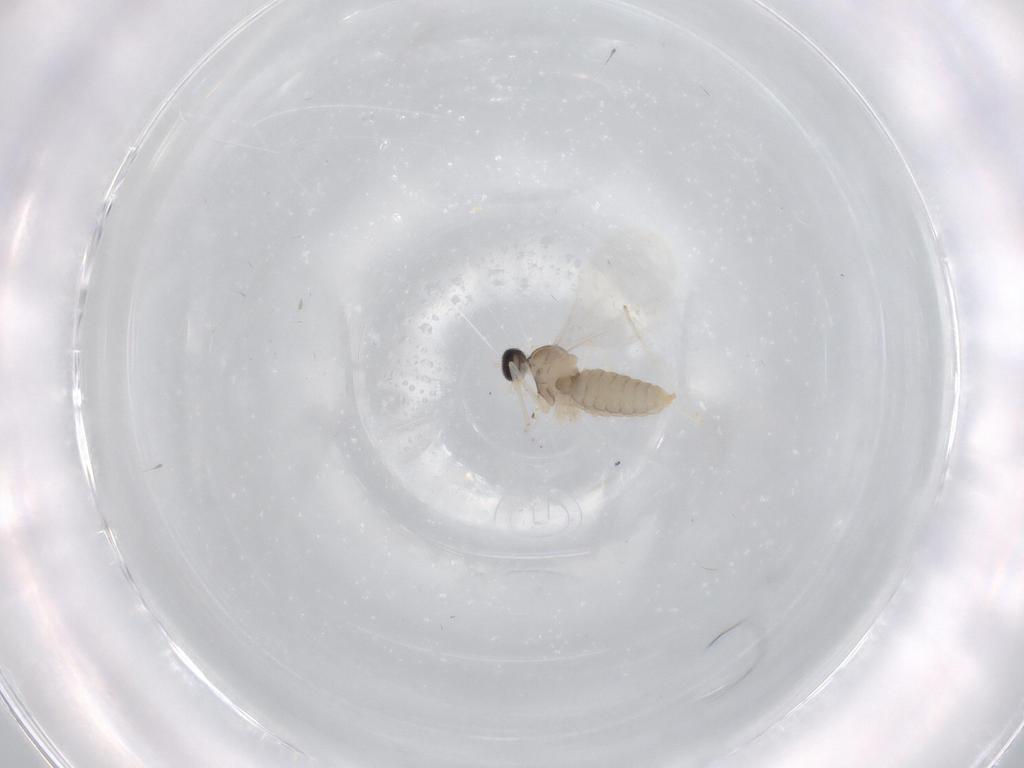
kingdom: Animalia
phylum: Arthropoda
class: Insecta
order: Diptera
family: Cecidomyiidae
